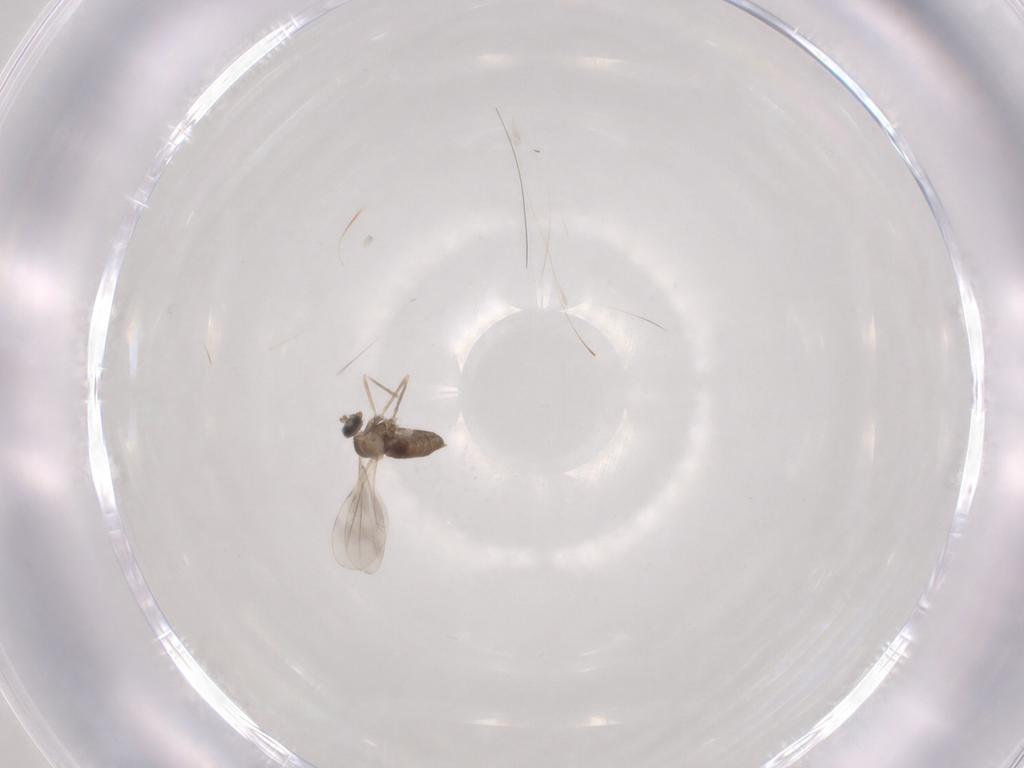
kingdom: Animalia
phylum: Arthropoda
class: Insecta
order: Diptera
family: Cecidomyiidae
